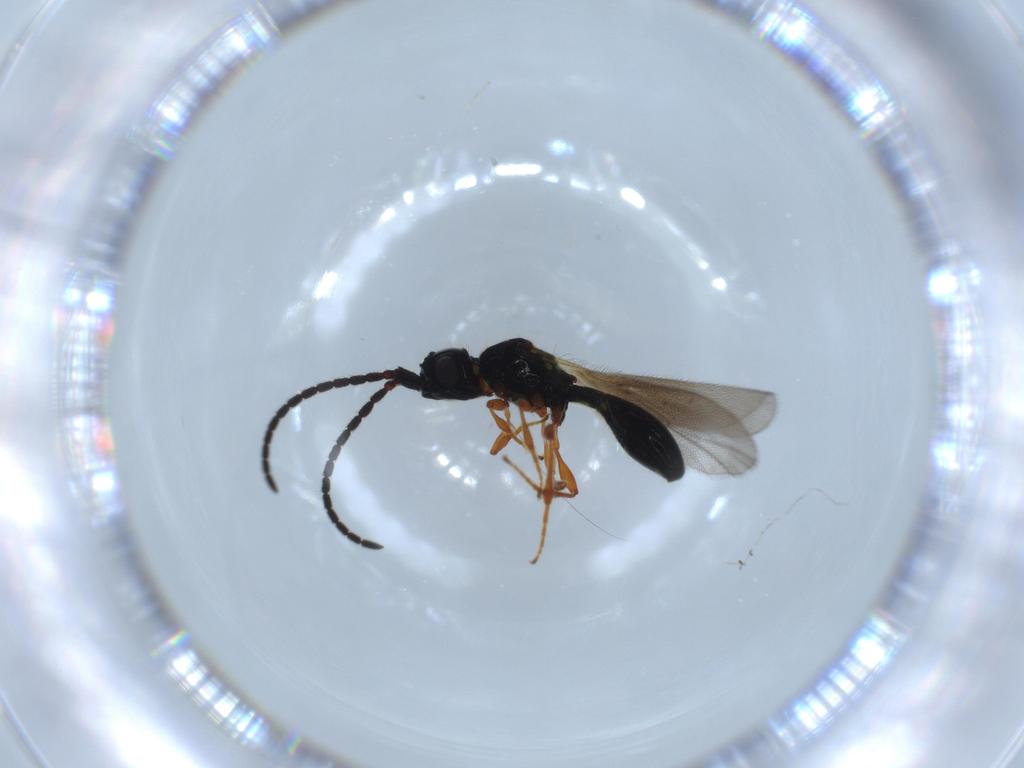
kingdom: Animalia
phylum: Arthropoda
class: Insecta
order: Hymenoptera
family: Diapriidae
